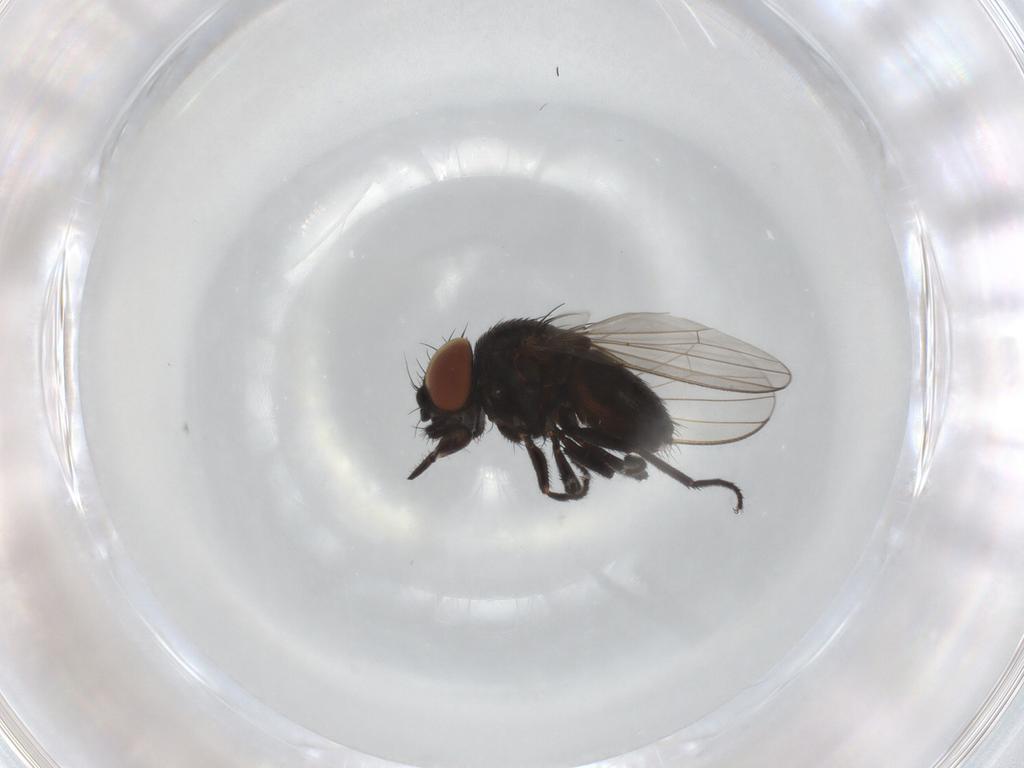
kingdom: Animalia
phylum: Arthropoda
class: Insecta
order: Diptera
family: Milichiidae
